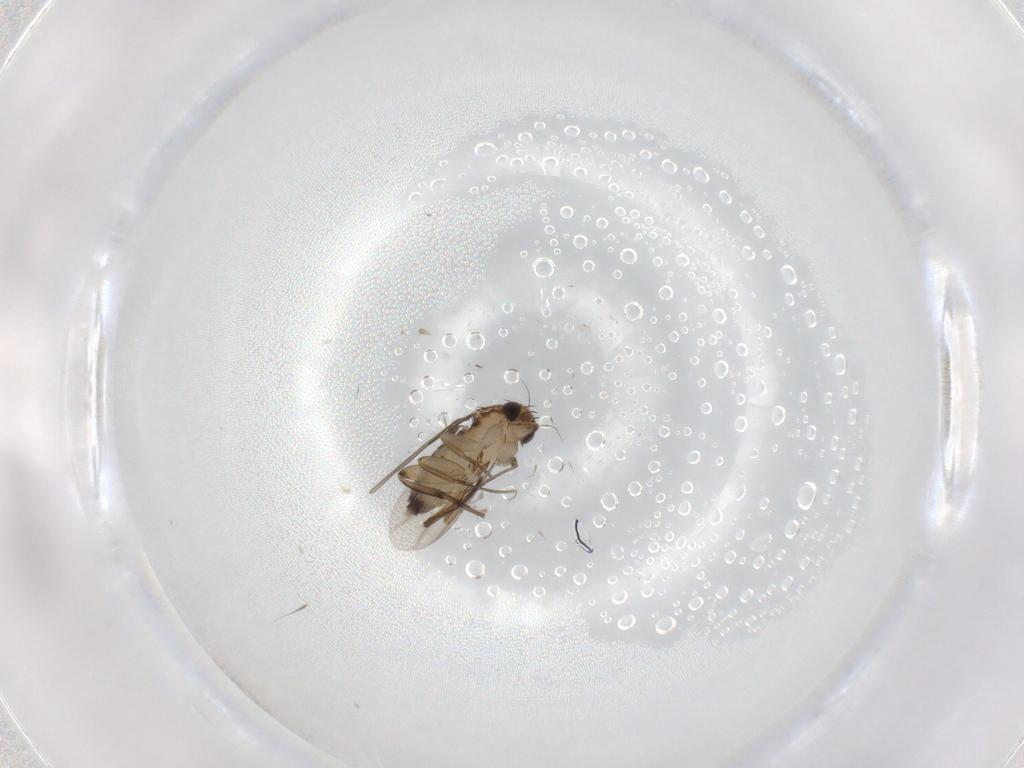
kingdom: Animalia
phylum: Arthropoda
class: Insecta
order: Diptera
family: Phoridae
